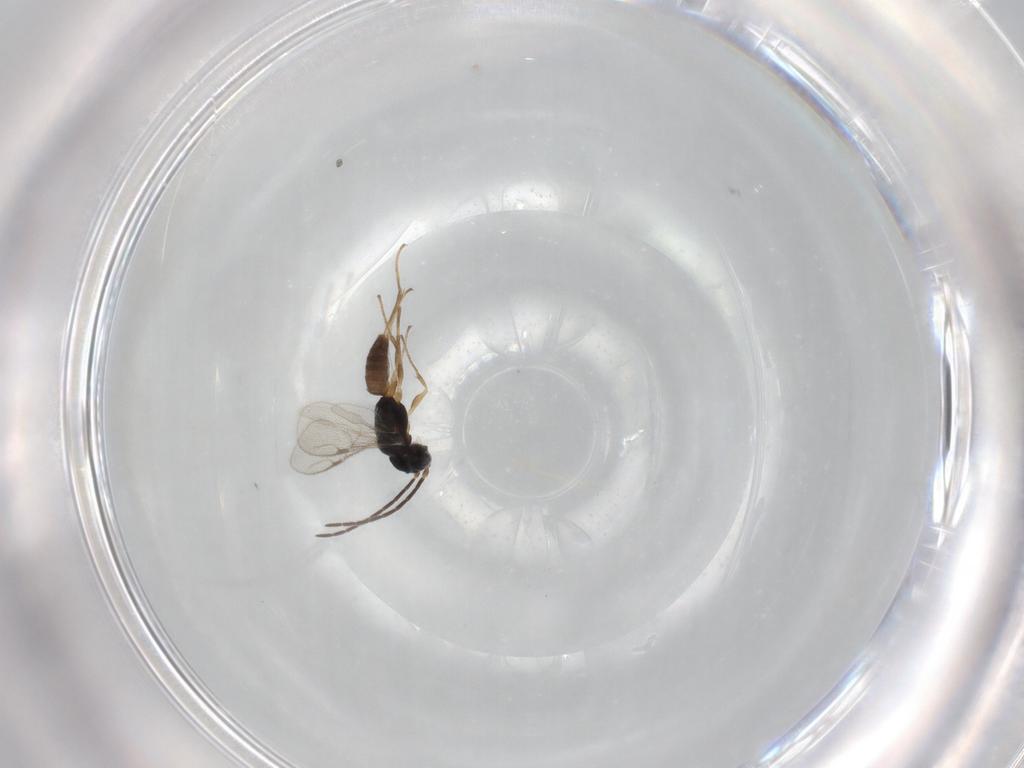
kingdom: Animalia
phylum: Arthropoda
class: Insecta
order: Hymenoptera
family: Dryinidae
